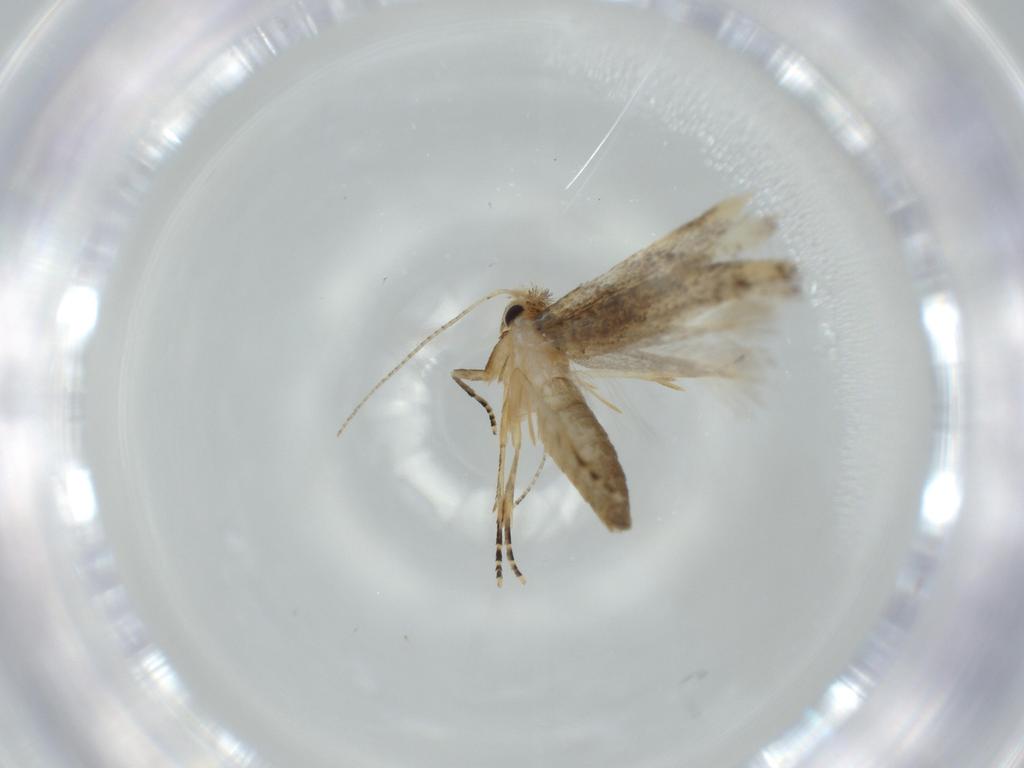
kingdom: Animalia
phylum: Arthropoda
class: Insecta
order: Lepidoptera
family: Bucculatricidae
